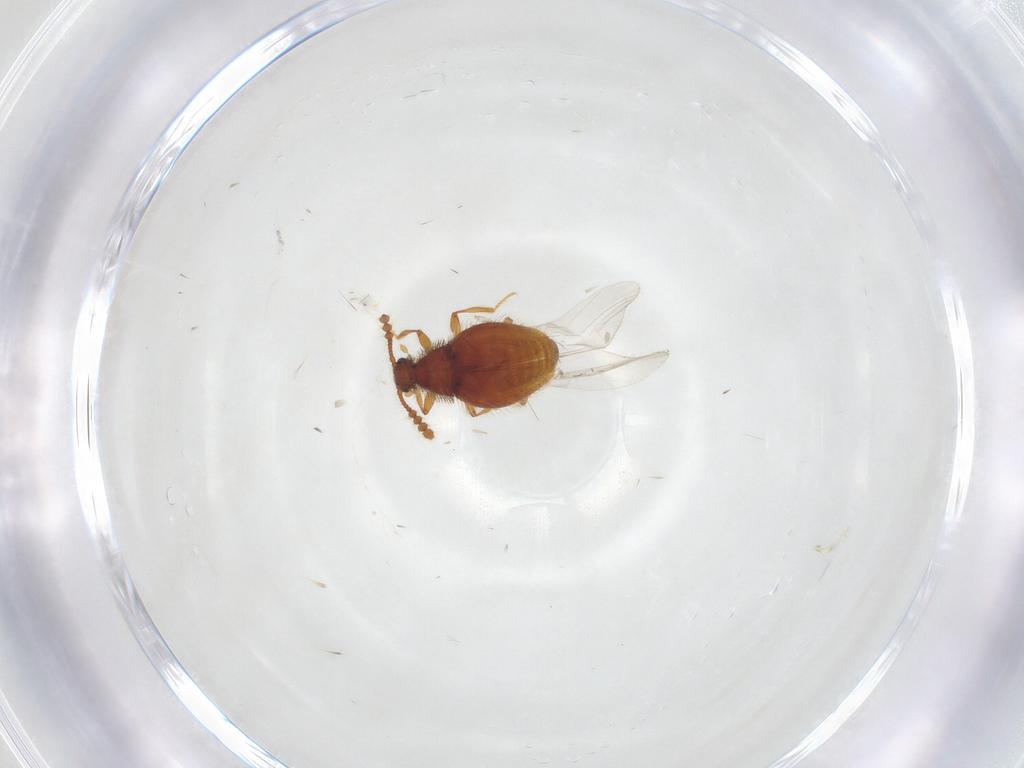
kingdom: Animalia
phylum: Arthropoda
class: Insecta
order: Coleoptera
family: Staphylinidae
